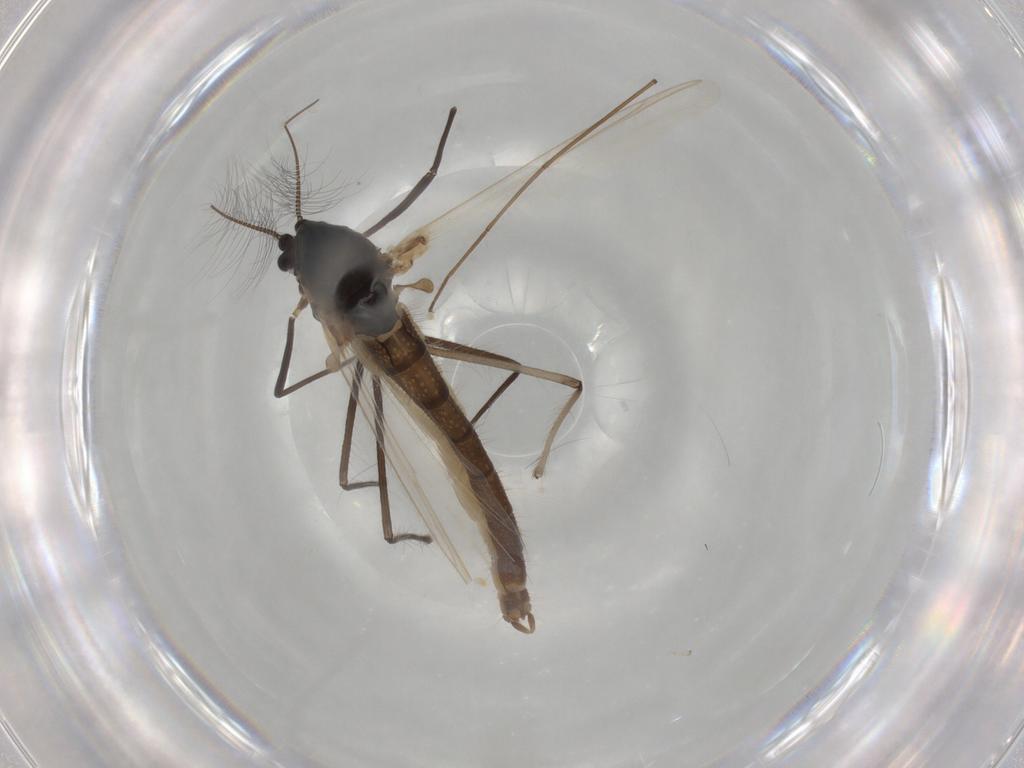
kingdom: Animalia
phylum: Arthropoda
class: Insecta
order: Diptera
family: Chironomidae
